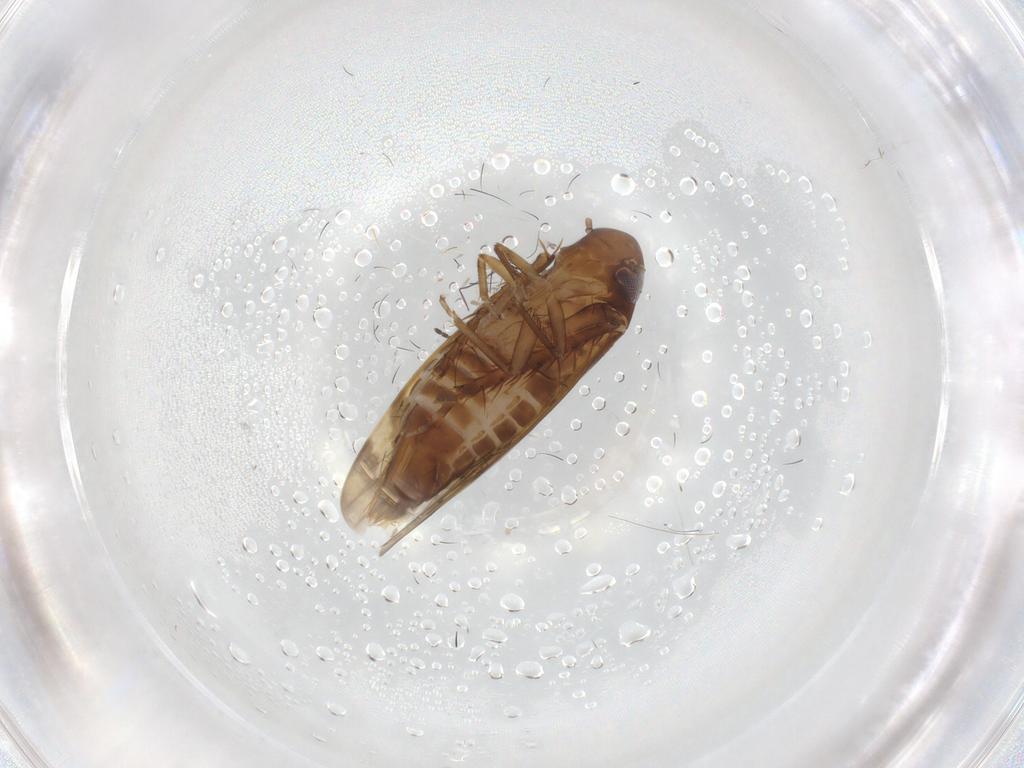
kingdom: Animalia
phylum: Arthropoda
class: Insecta
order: Hemiptera
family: Cicadellidae
